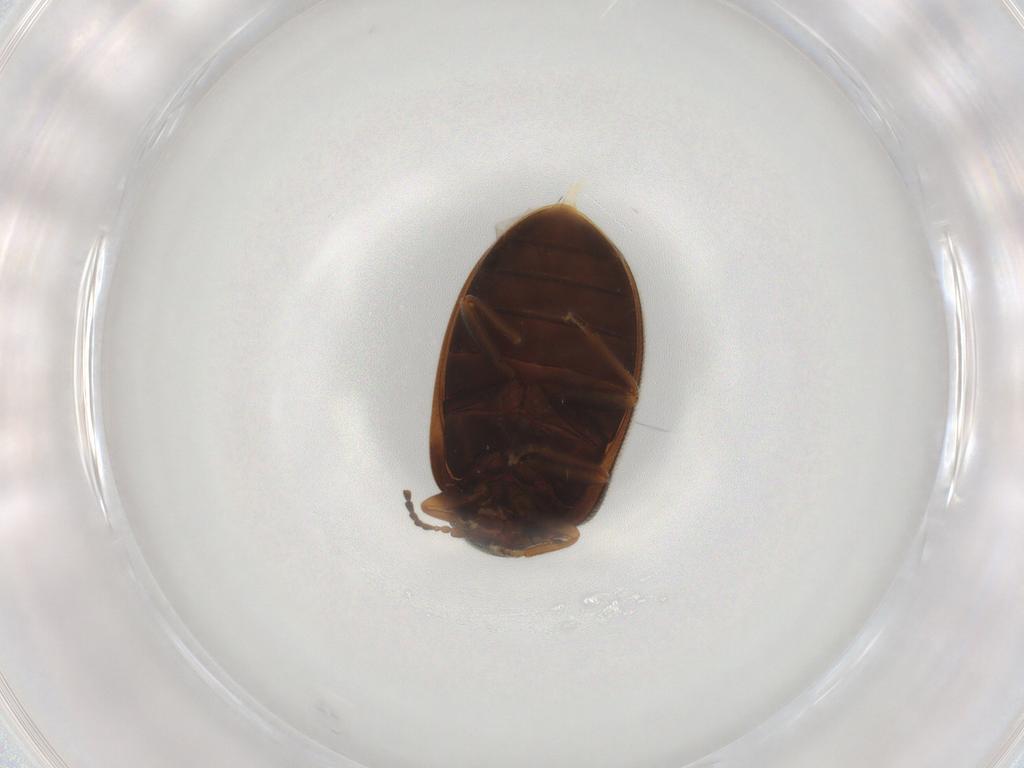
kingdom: Animalia
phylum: Arthropoda
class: Insecta
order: Coleoptera
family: Scirtidae
